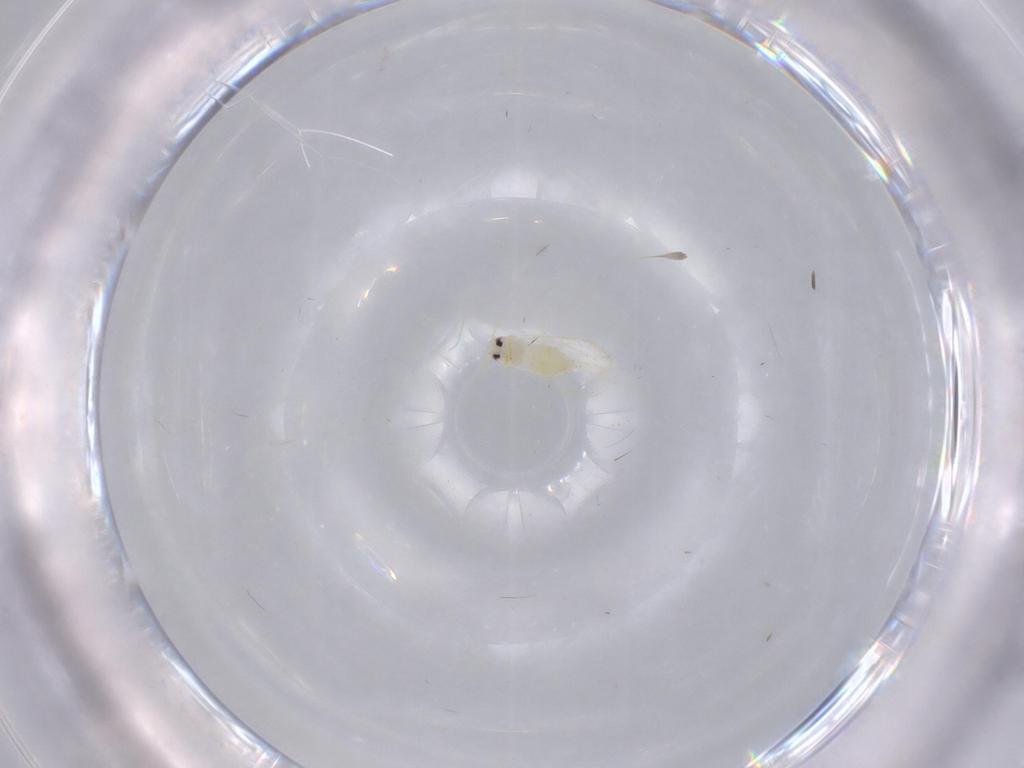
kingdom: Animalia
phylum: Arthropoda
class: Insecta
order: Hemiptera
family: Aleyrodidae
